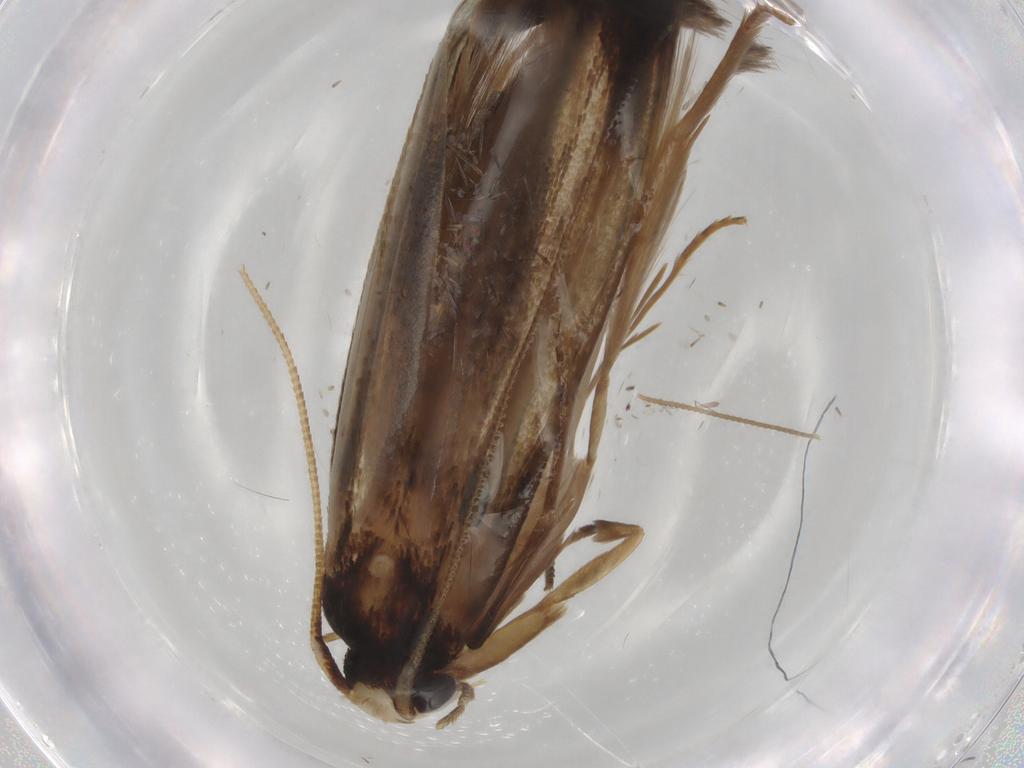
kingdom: Animalia
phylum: Arthropoda
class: Insecta
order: Lepidoptera
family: Tineidae
